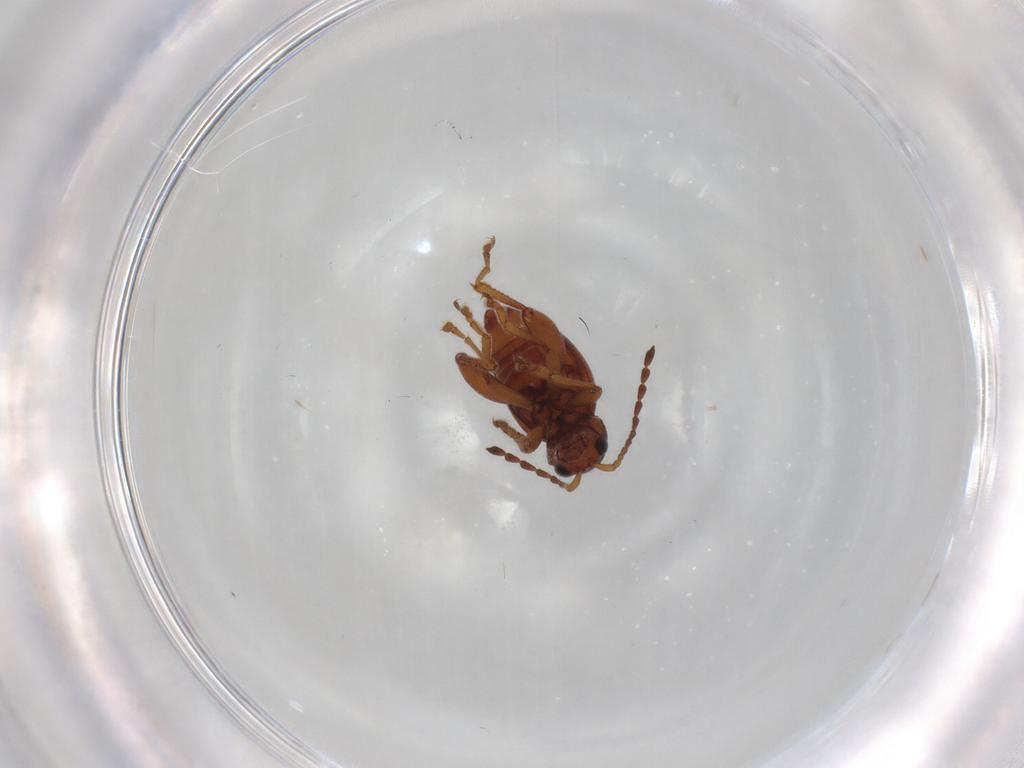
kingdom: Animalia
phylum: Arthropoda
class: Insecta
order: Coleoptera
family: Chrysomelidae
